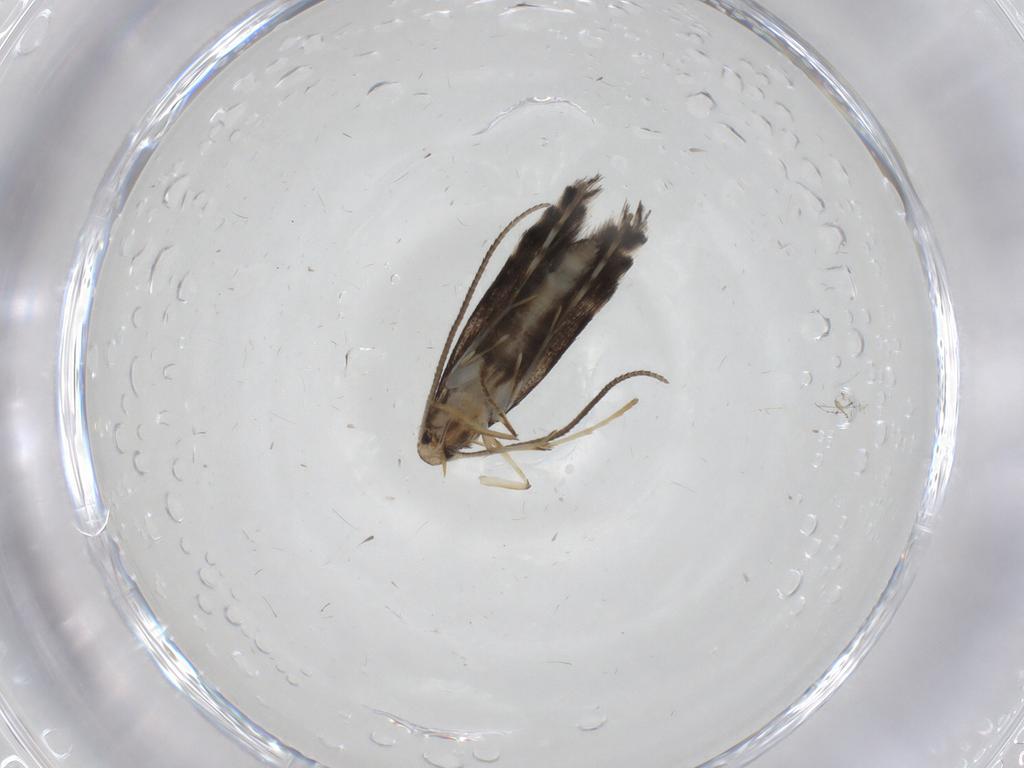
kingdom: Animalia
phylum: Arthropoda
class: Insecta
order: Lepidoptera
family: Gracillariidae
